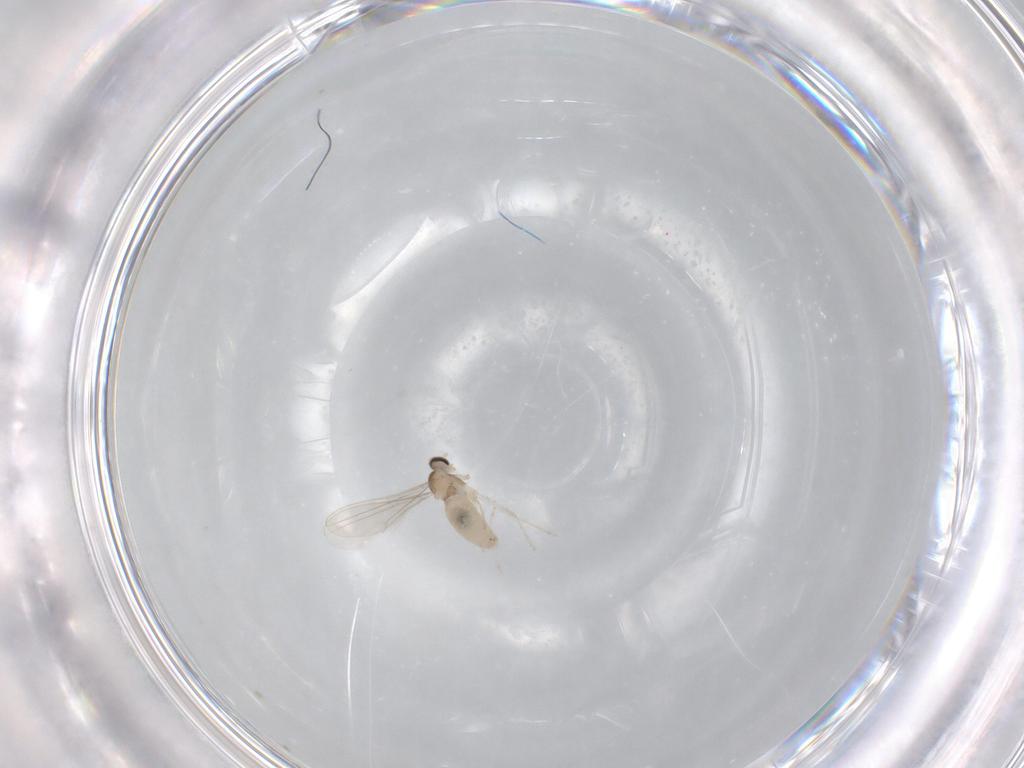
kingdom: Animalia
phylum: Arthropoda
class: Insecta
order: Diptera
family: Cecidomyiidae
